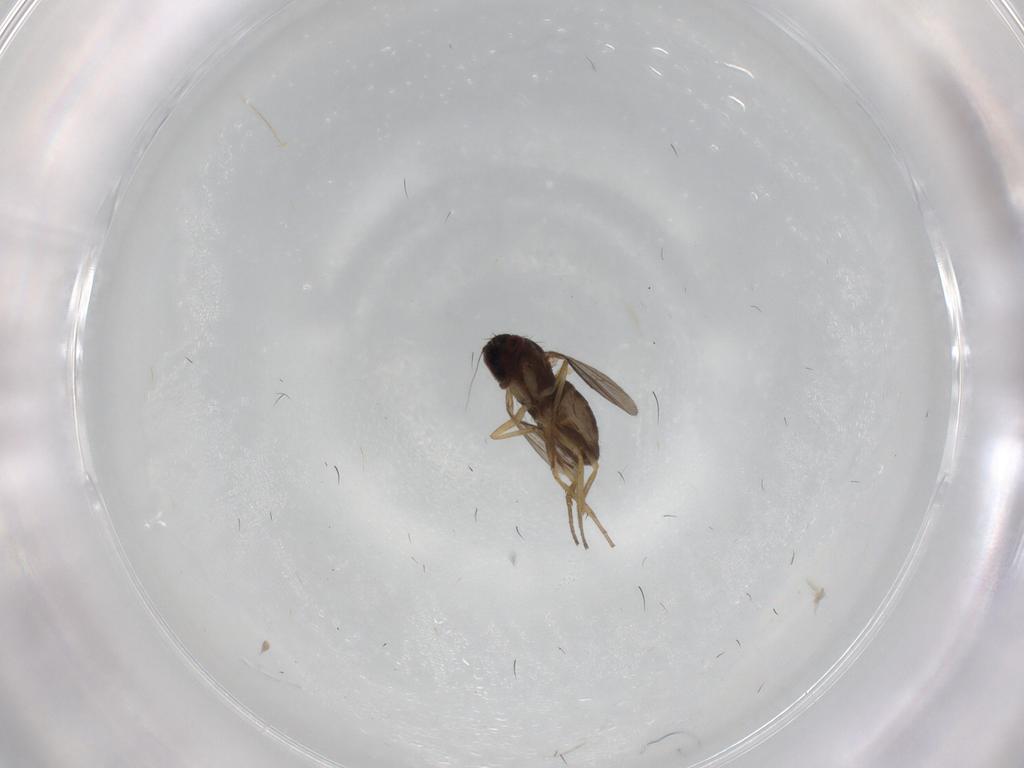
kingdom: Animalia
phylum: Arthropoda
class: Insecta
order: Diptera
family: Dolichopodidae
